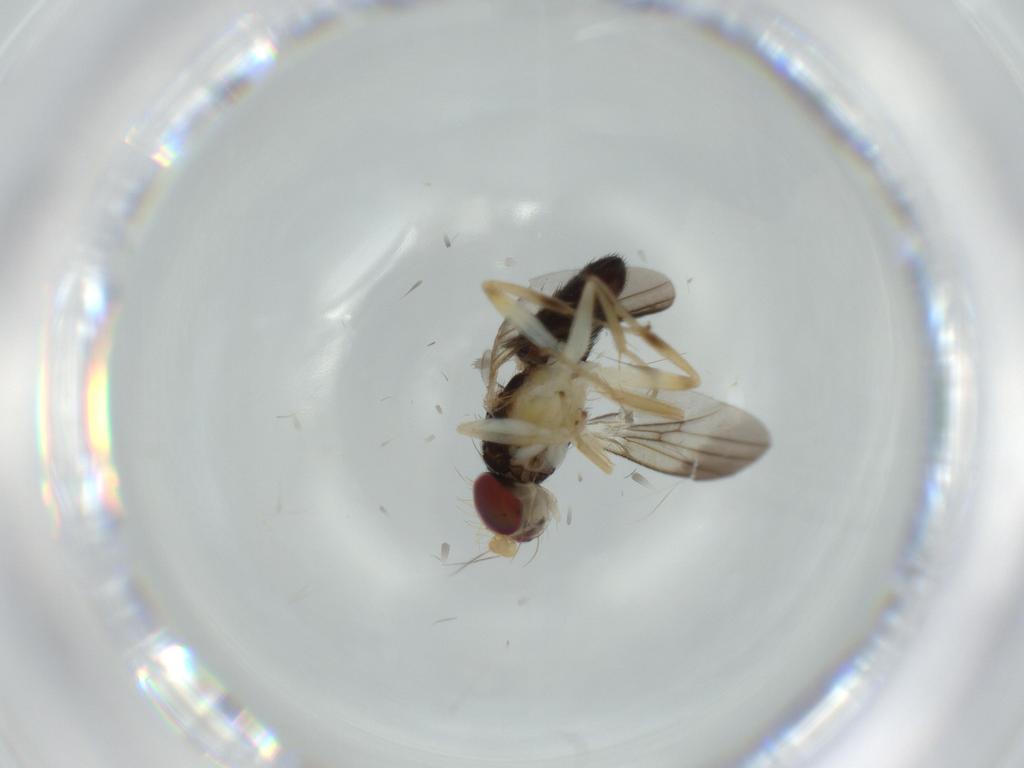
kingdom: Animalia
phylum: Arthropoda
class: Insecta
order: Diptera
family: Clusiidae
